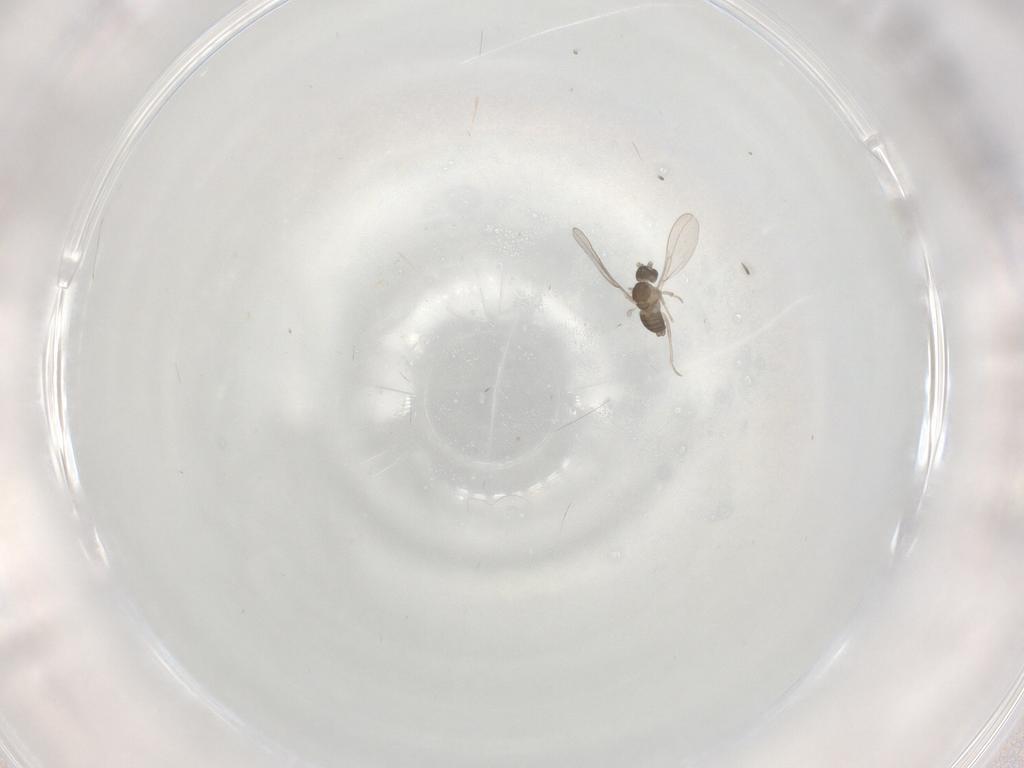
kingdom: Animalia
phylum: Arthropoda
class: Insecta
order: Diptera
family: Cecidomyiidae
